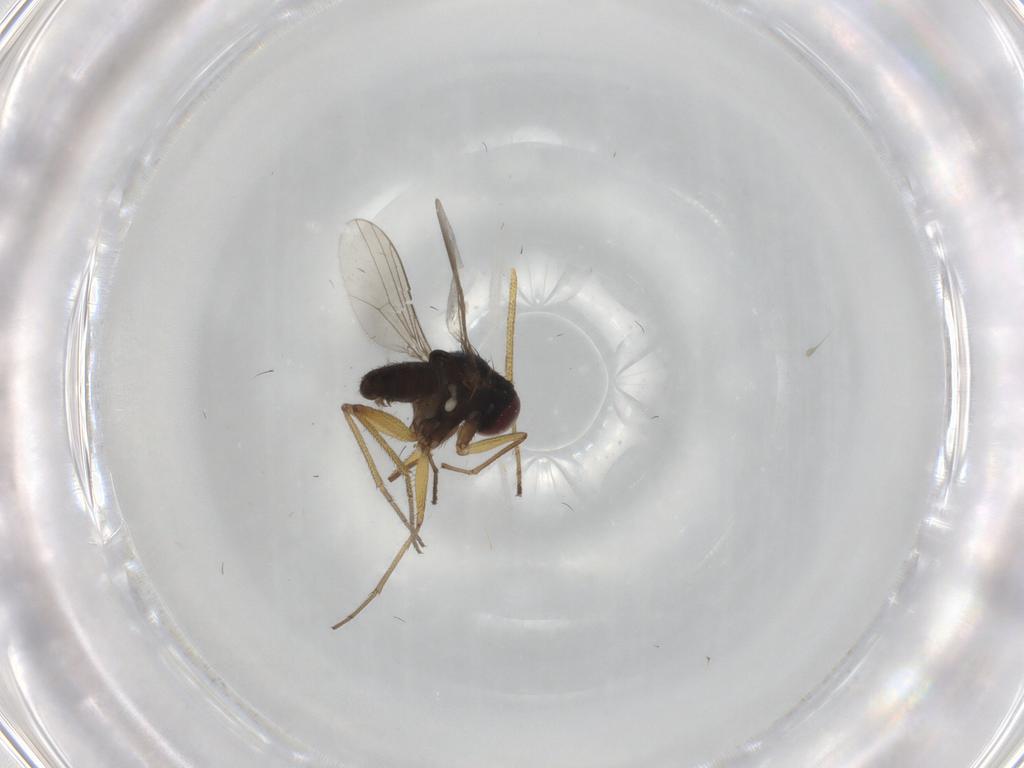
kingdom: Animalia
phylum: Arthropoda
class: Insecta
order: Diptera
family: Dolichopodidae
